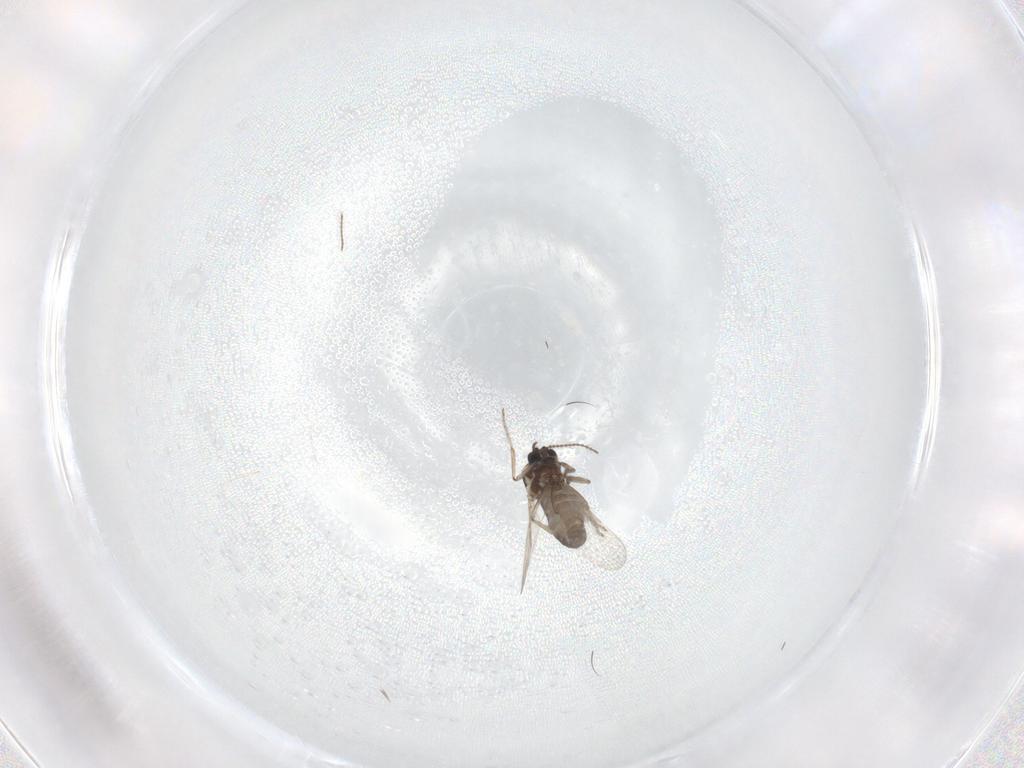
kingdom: Animalia
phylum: Arthropoda
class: Insecta
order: Diptera
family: Ceratopogonidae
